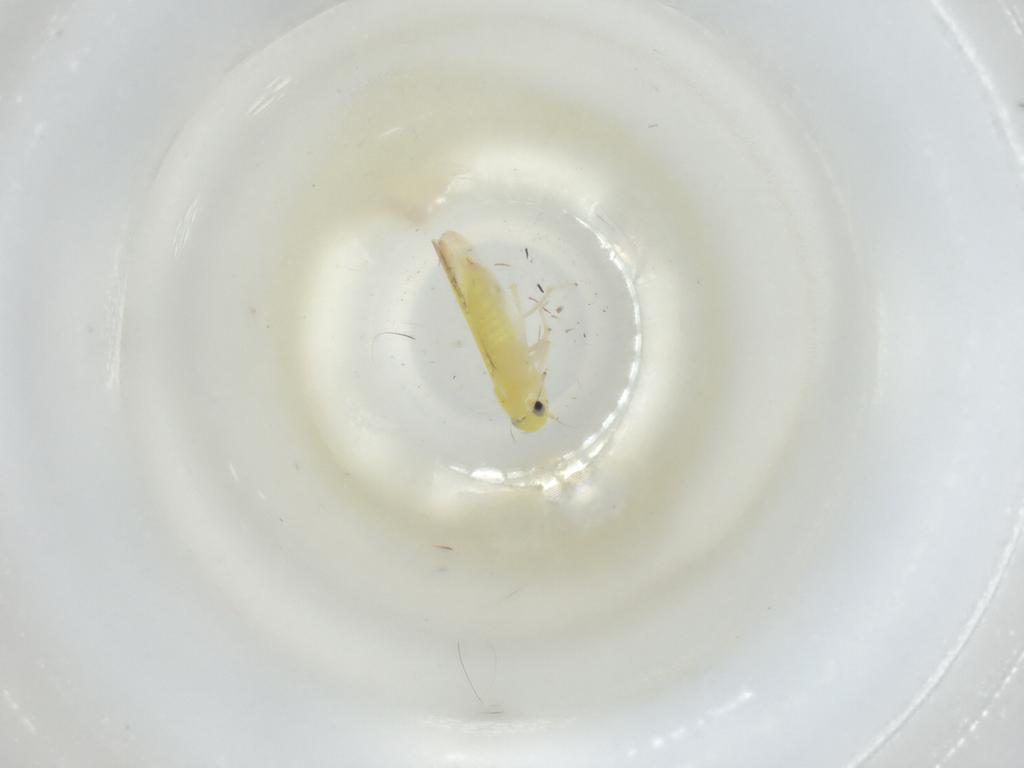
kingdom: Animalia
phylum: Arthropoda
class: Insecta
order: Hemiptera
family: Cicadellidae
